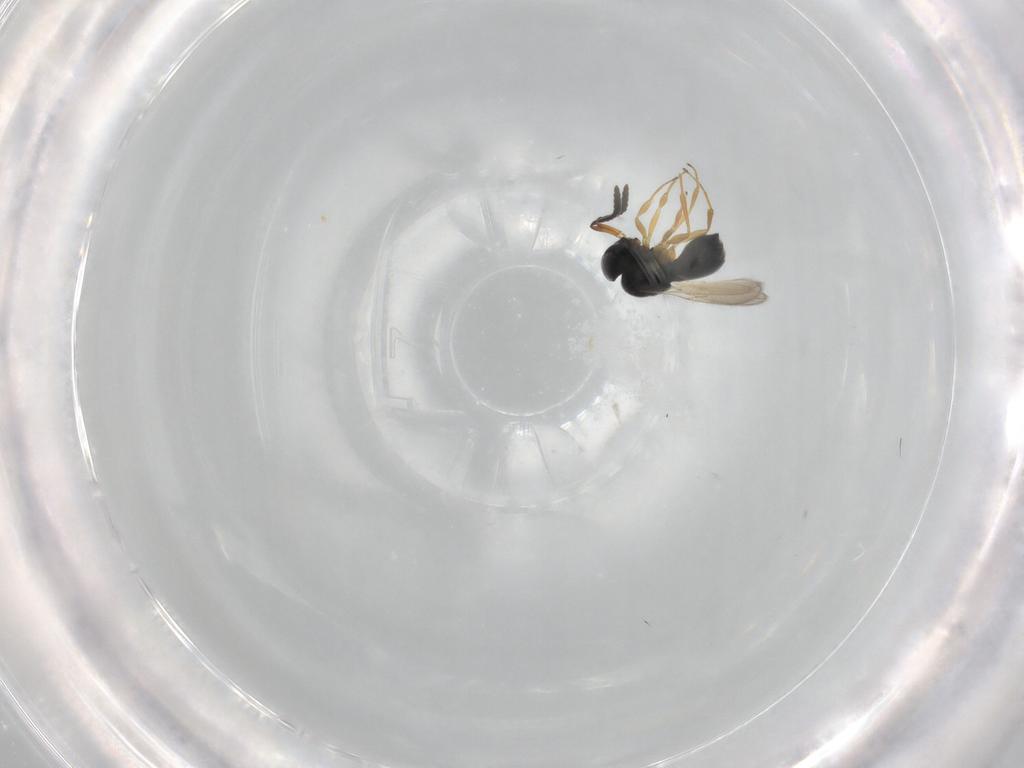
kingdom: Animalia
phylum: Arthropoda
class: Insecta
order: Hymenoptera
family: Scelionidae
